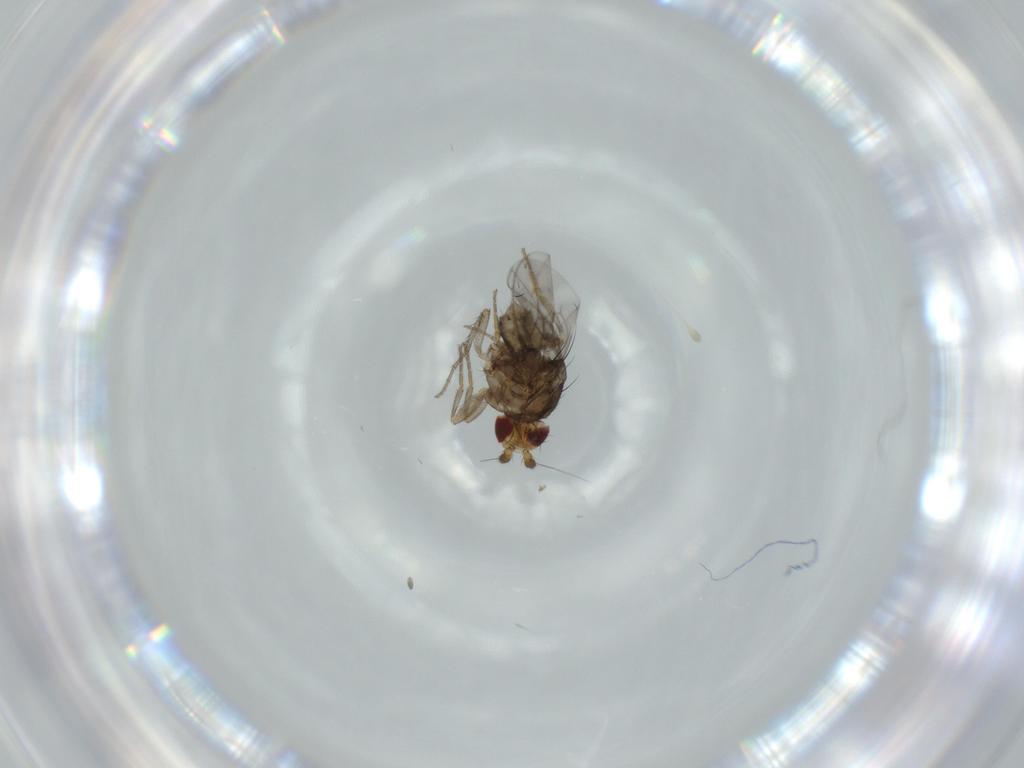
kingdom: Animalia
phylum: Arthropoda
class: Insecta
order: Diptera
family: Sphaeroceridae
